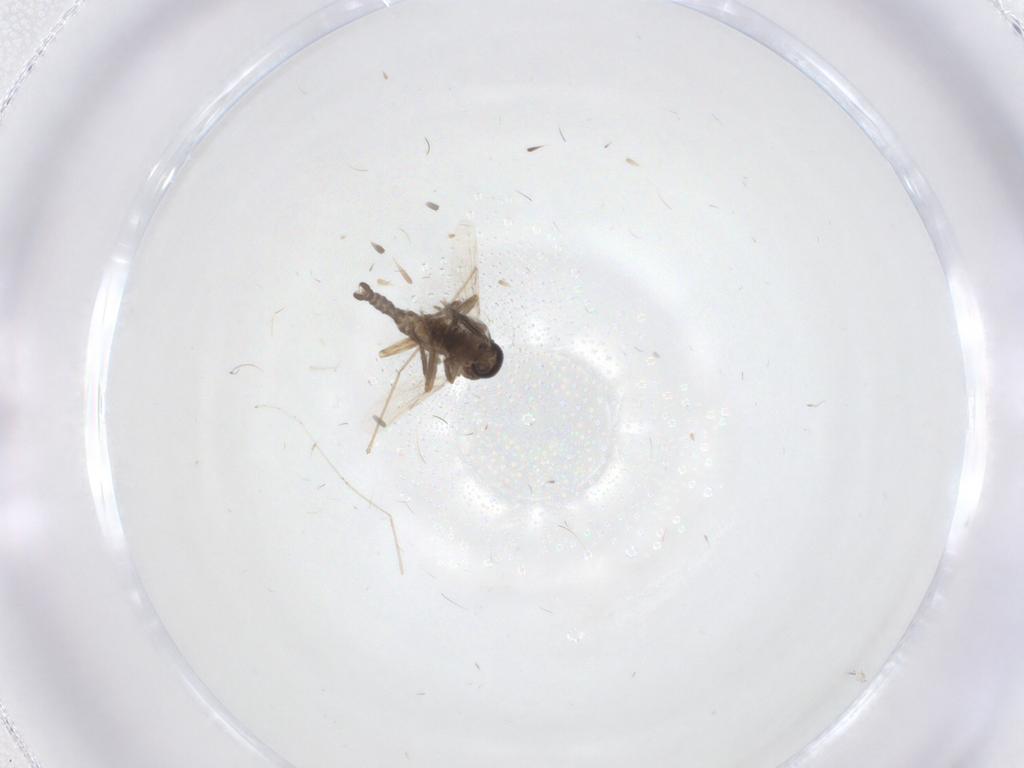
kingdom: Animalia
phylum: Arthropoda
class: Insecta
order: Diptera
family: Ceratopogonidae
